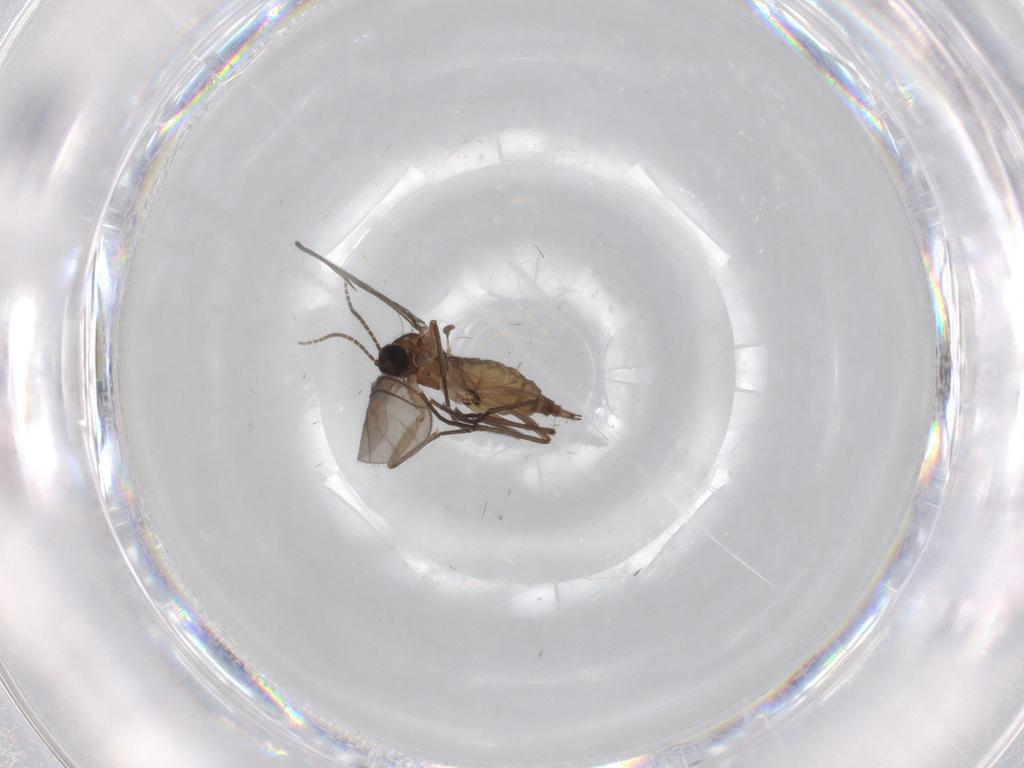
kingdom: Animalia
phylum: Arthropoda
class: Insecta
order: Diptera
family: Sciaridae
